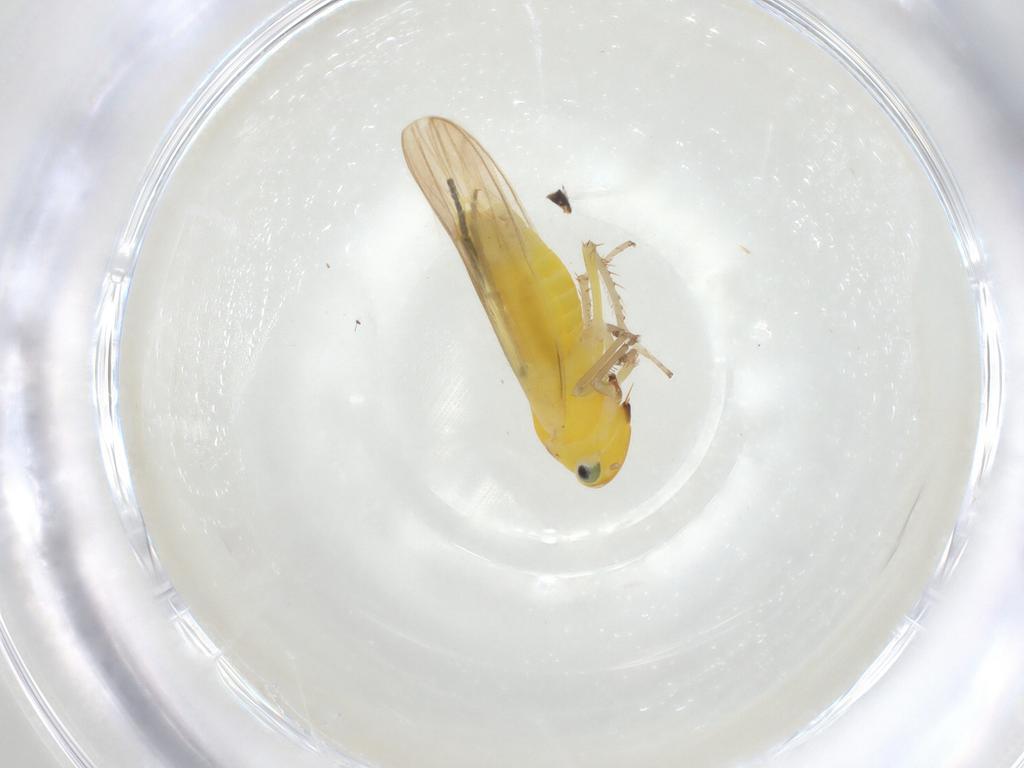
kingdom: Animalia
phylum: Arthropoda
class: Insecta
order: Hemiptera
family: Cicadellidae
